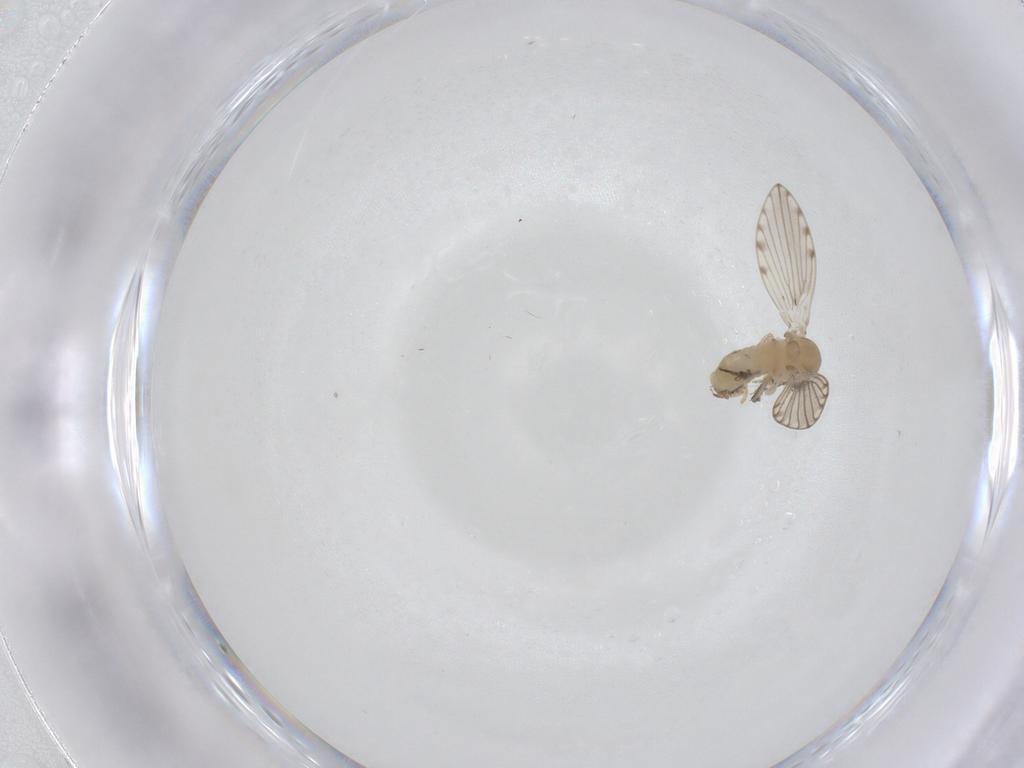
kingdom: Animalia
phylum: Arthropoda
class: Insecta
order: Diptera
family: Psychodidae
